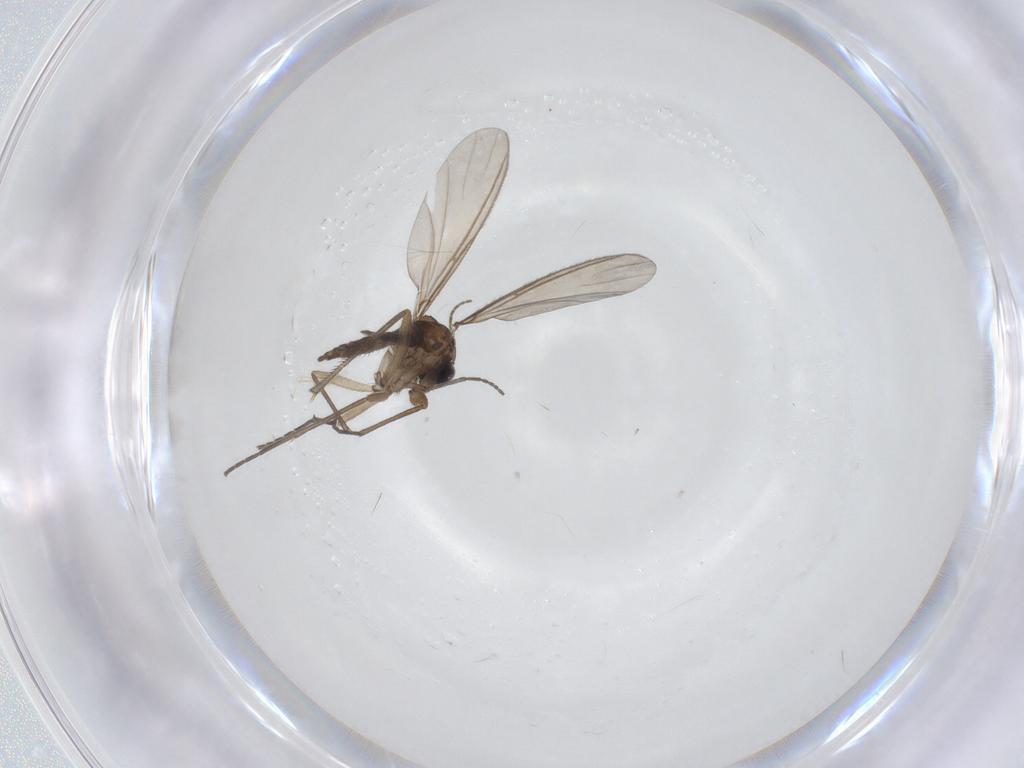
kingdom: Animalia
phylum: Arthropoda
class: Insecta
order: Diptera
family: Sciaridae
